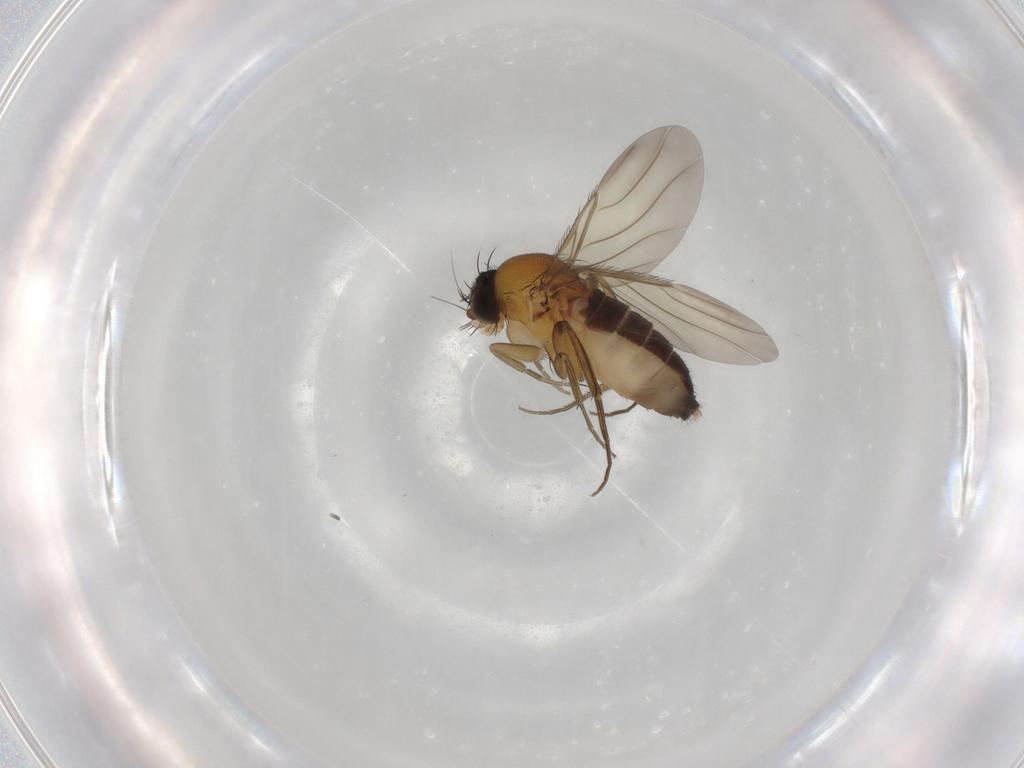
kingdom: Animalia
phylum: Arthropoda
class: Insecta
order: Diptera
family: Phoridae
